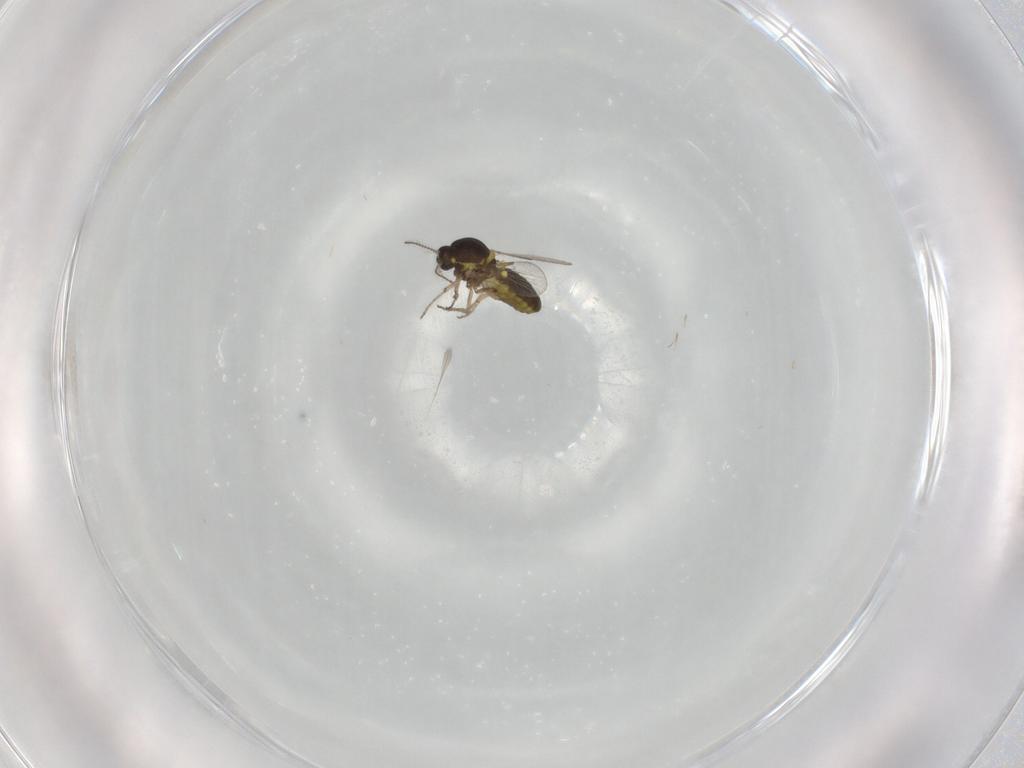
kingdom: Animalia
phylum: Arthropoda
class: Insecta
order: Diptera
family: Ceratopogonidae
